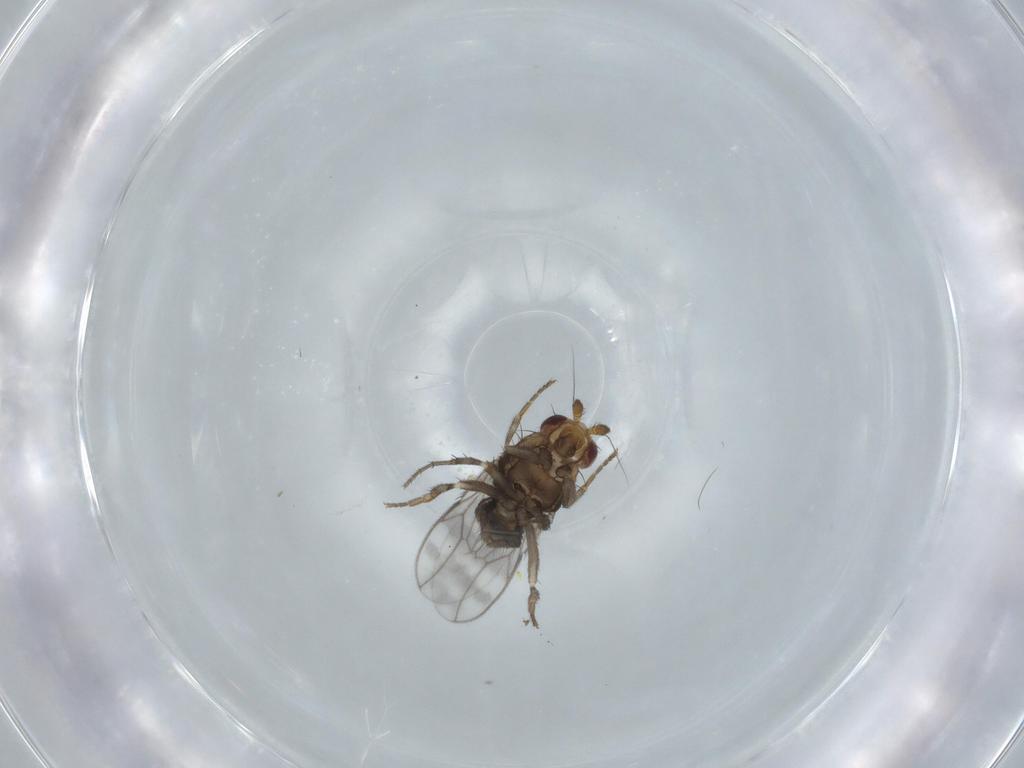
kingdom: Animalia
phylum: Arthropoda
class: Insecta
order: Diptera
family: Sphaeroceridae
